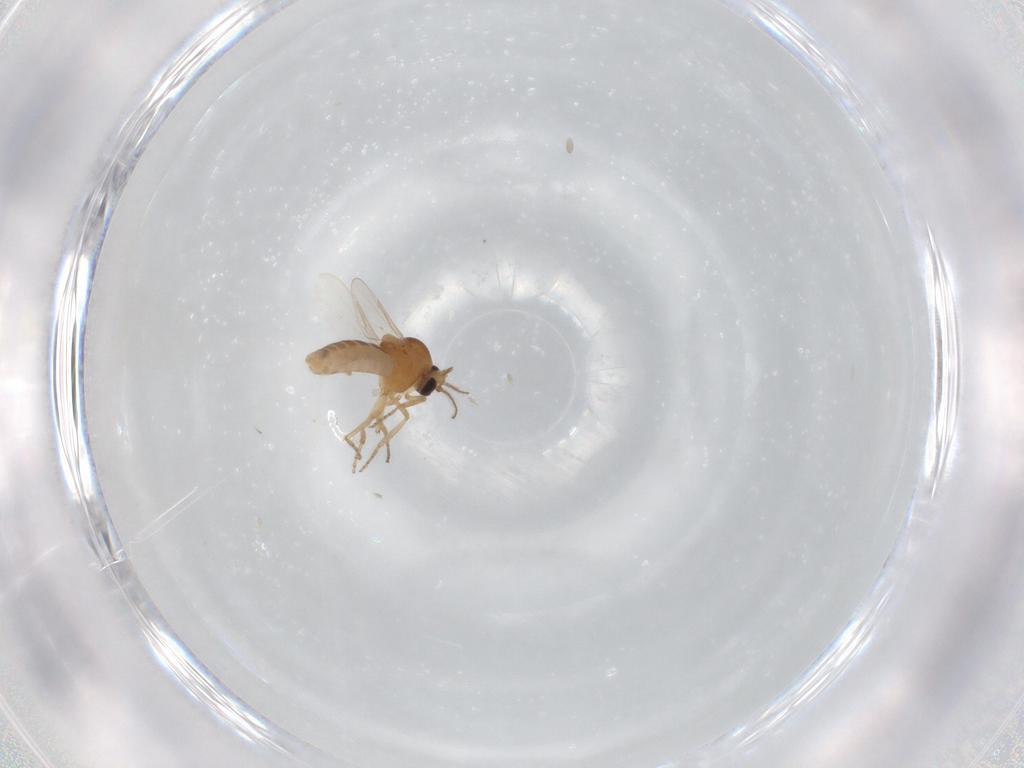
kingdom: Animalia
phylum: Arthropoda
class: Insecta
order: Diptera
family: Ceratopogonidae
